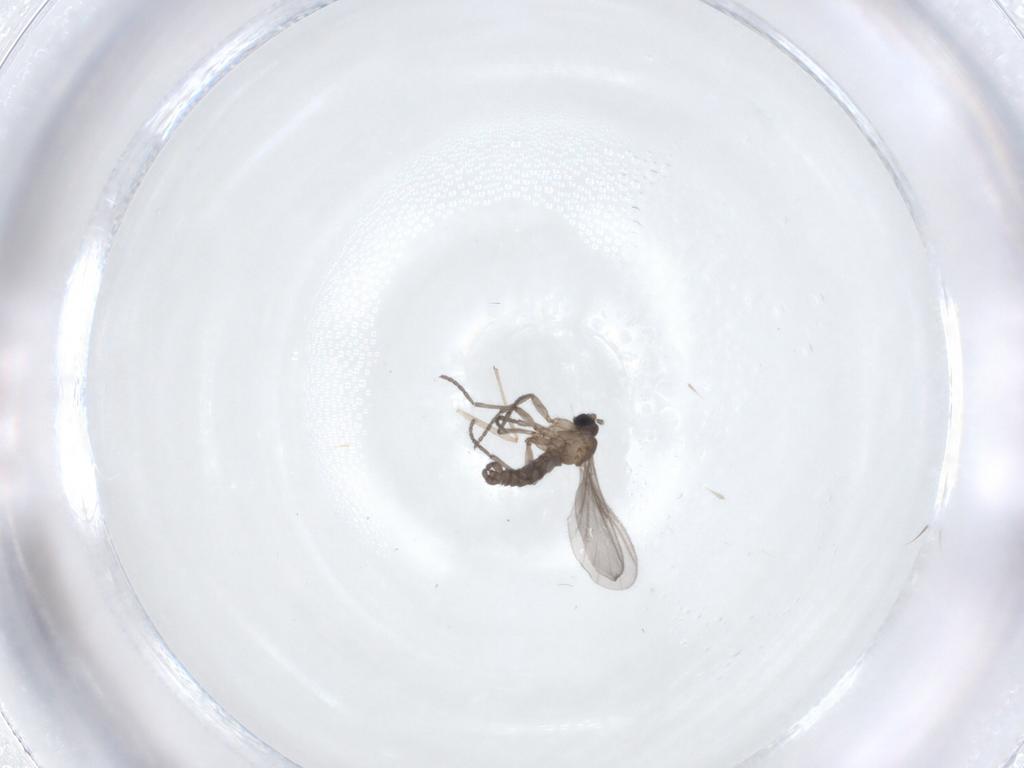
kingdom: Animalia
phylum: Arthropoda
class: Insecta
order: Diptera
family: Sciaridae
